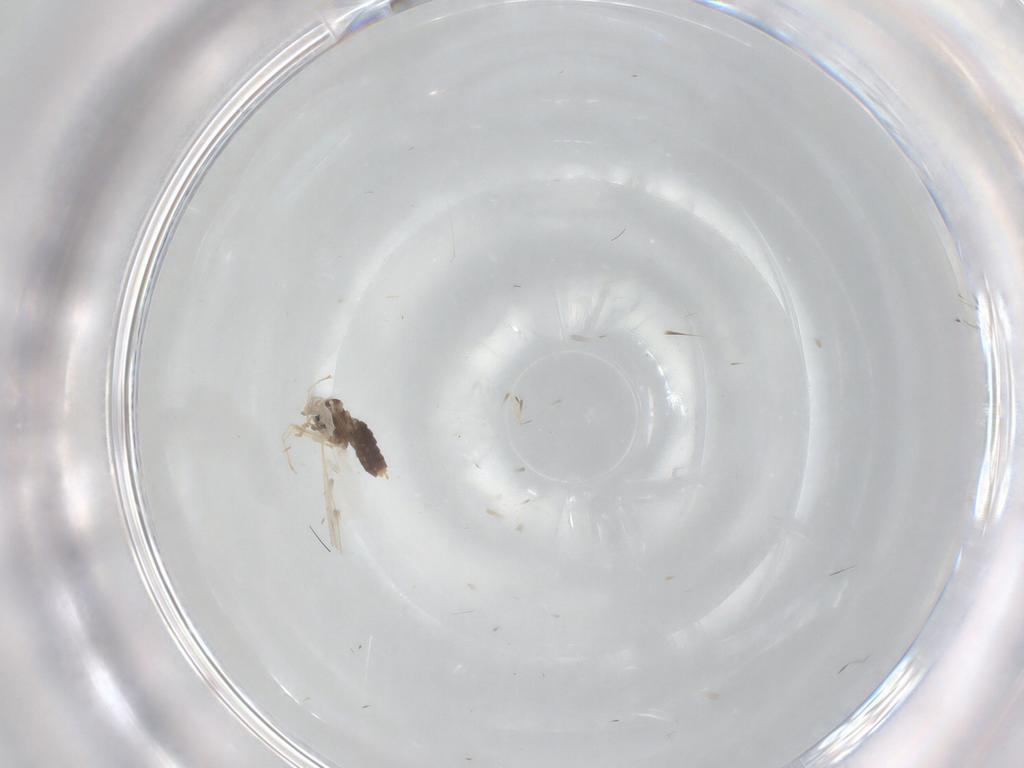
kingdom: Animalia
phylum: Arthropoda
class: Insecta
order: Diptera
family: Cecidomyiidae
